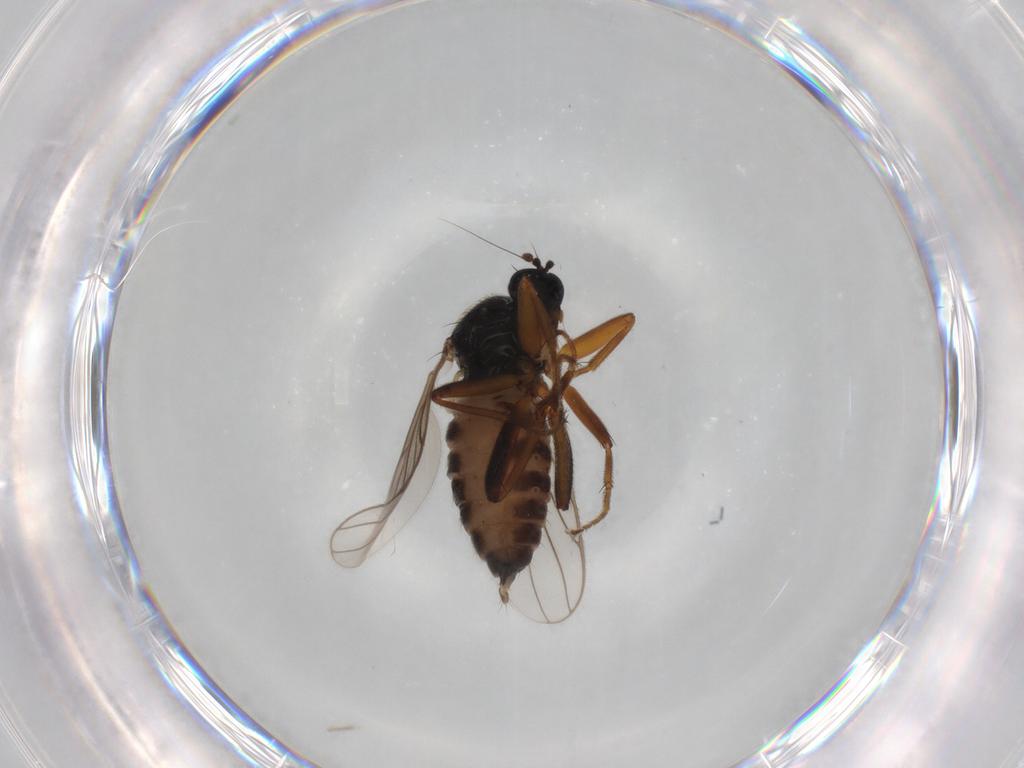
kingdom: Animalia
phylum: Arthropoda
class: Insecta
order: Diptera
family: Hybotidae
